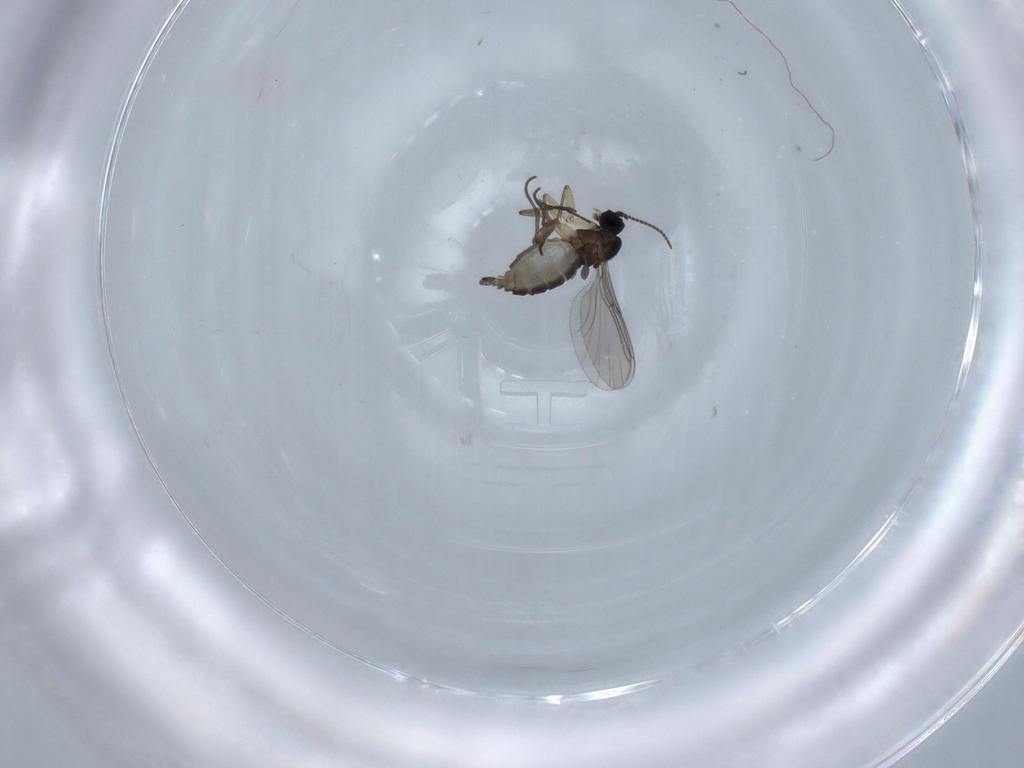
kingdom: Animalia
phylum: Arthropoda
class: Insecta
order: Diptera
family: Sciaridae
